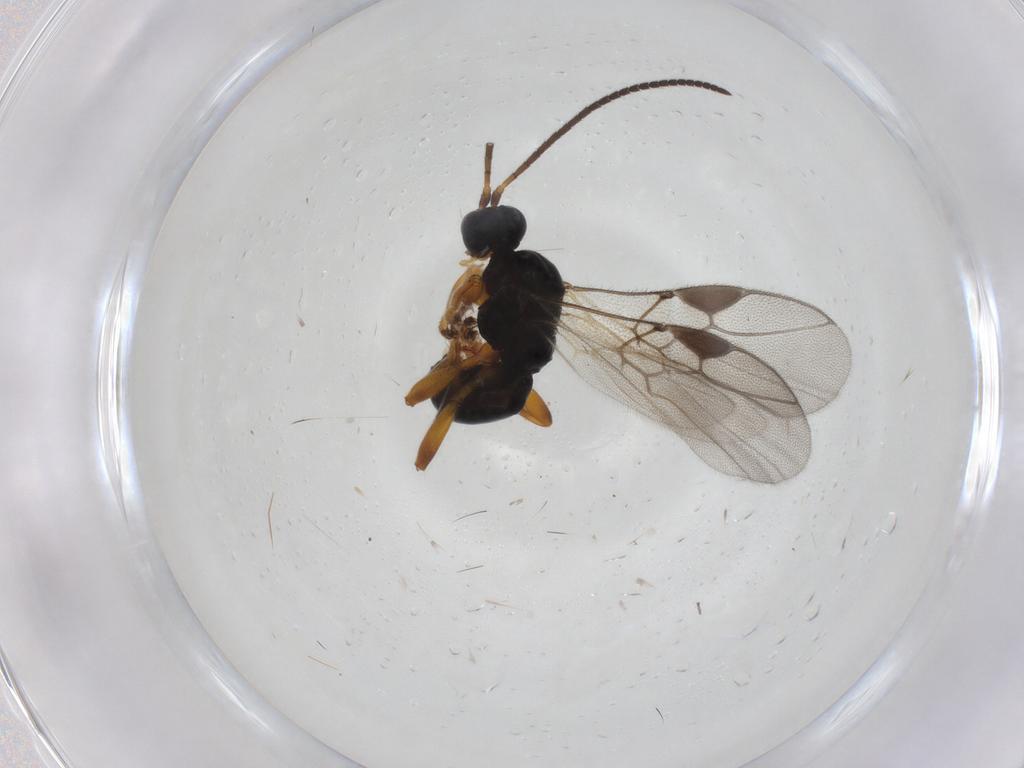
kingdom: Animalia
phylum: Arthropoda
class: Insecta
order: Hymenoptera
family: Braconidae
